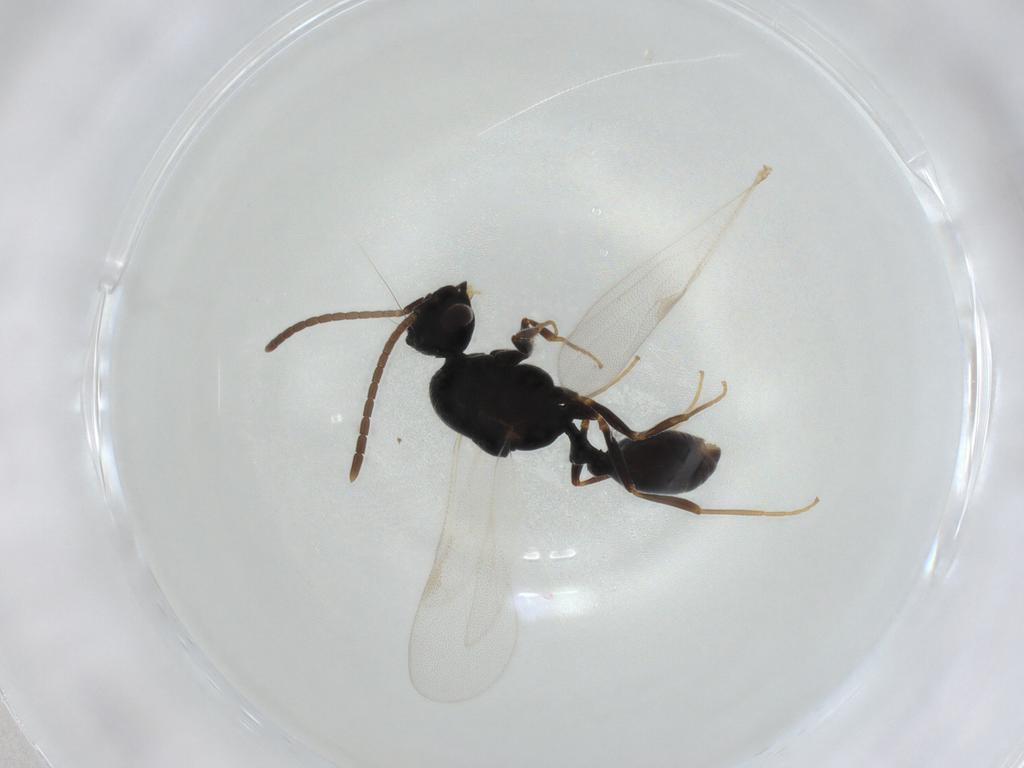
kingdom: Animalia
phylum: Arthropoda
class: Insecta
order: Hymenoptera
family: Formicidae
